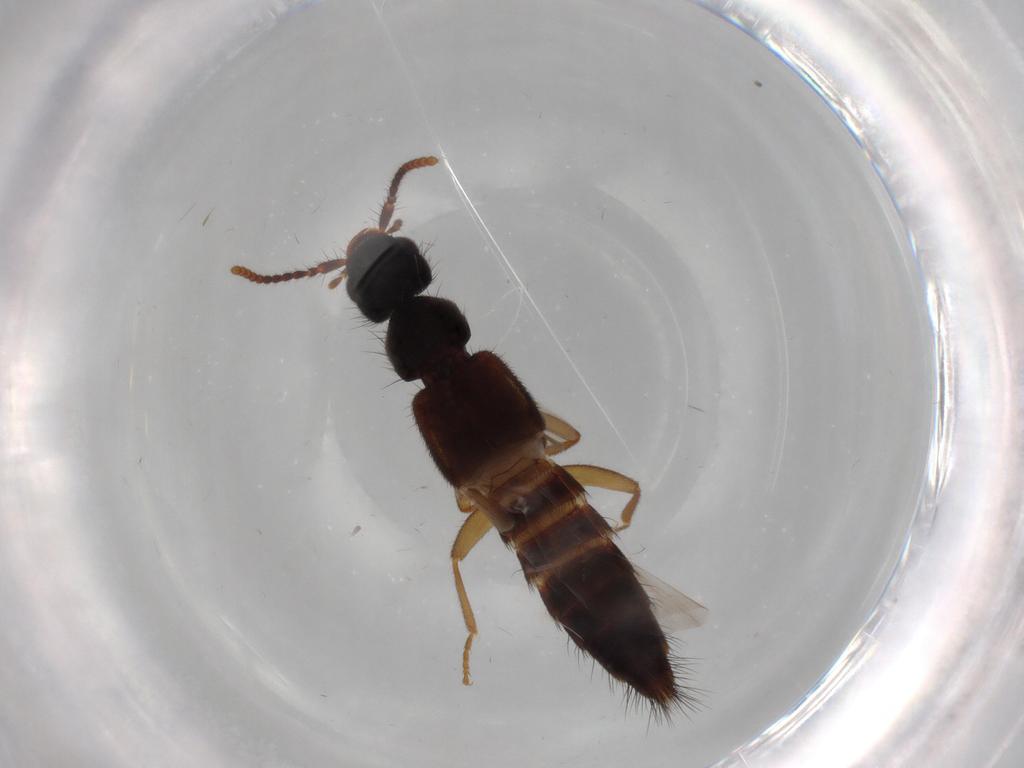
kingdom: Animalia
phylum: Arthropoda
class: Insecta
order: Coleoptera
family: Staphylinidae
